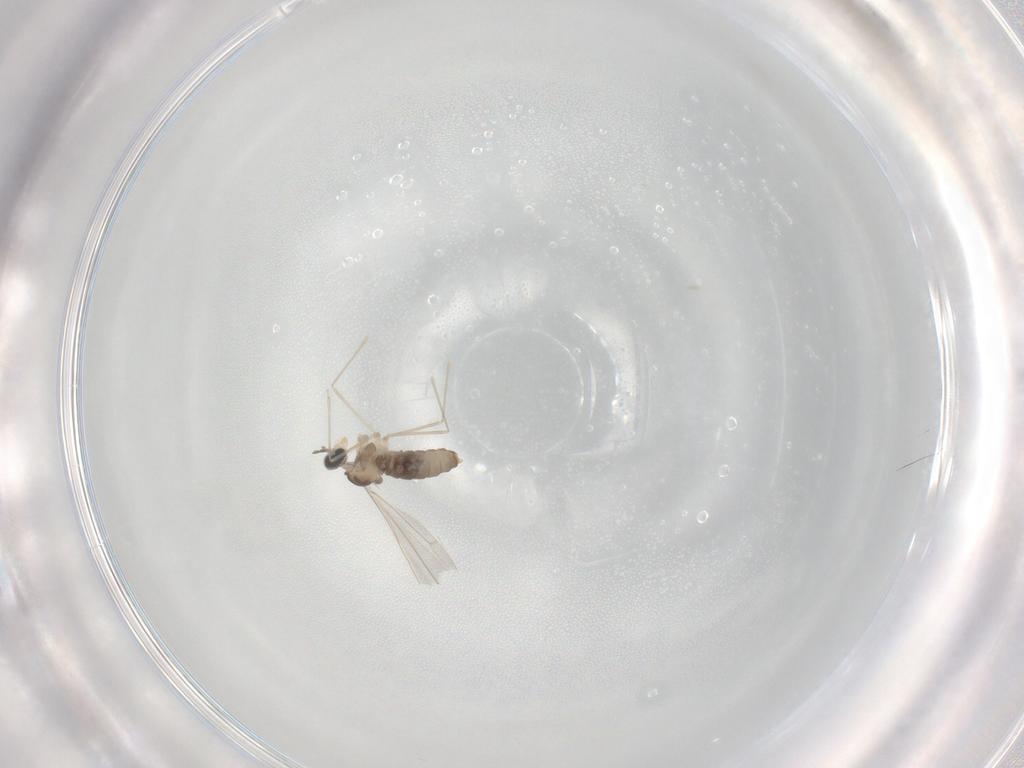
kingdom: Animalia
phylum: Arthropoda
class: Insecta
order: Diptera
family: Cecidomyiidae
